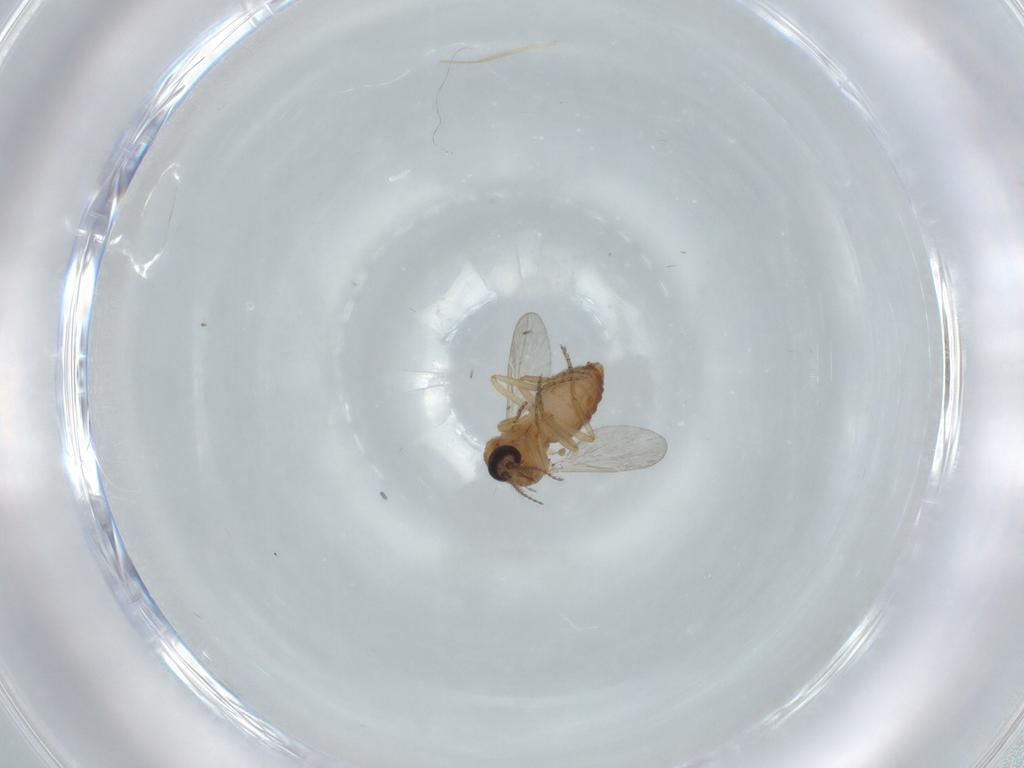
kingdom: Animalia
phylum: Arthropoda
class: Insecta
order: Diptera
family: Ceratopogonidae
